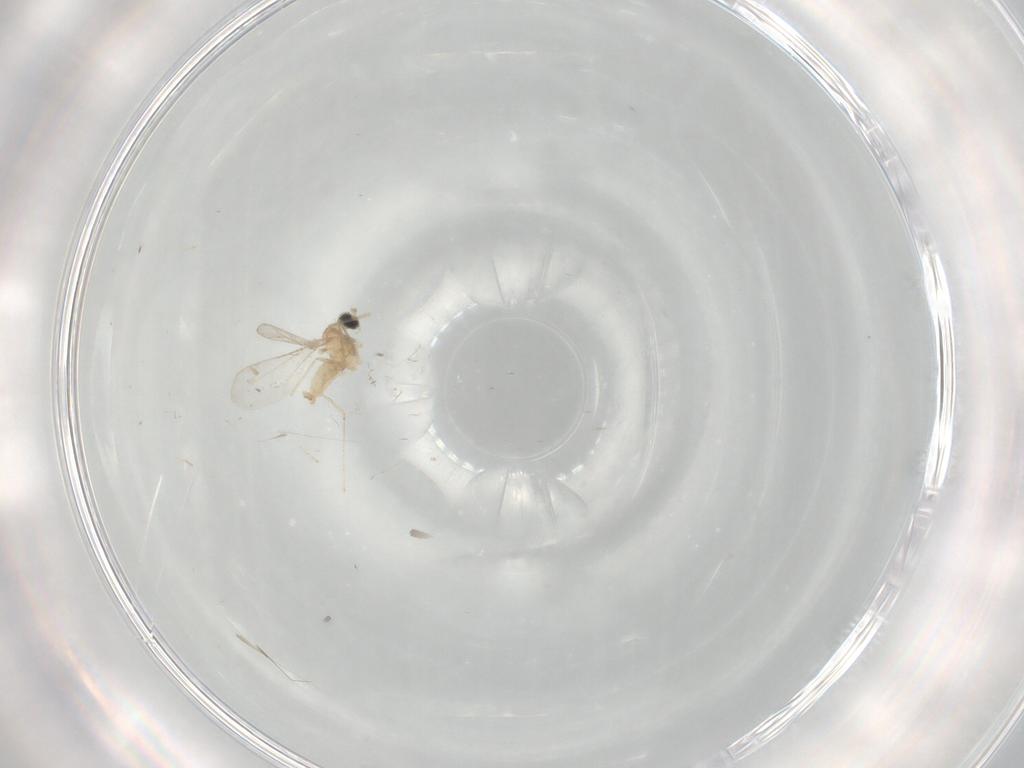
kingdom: Animalia
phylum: Arthropoda
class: Insecta
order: Diptera
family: Cecidomyiidae
